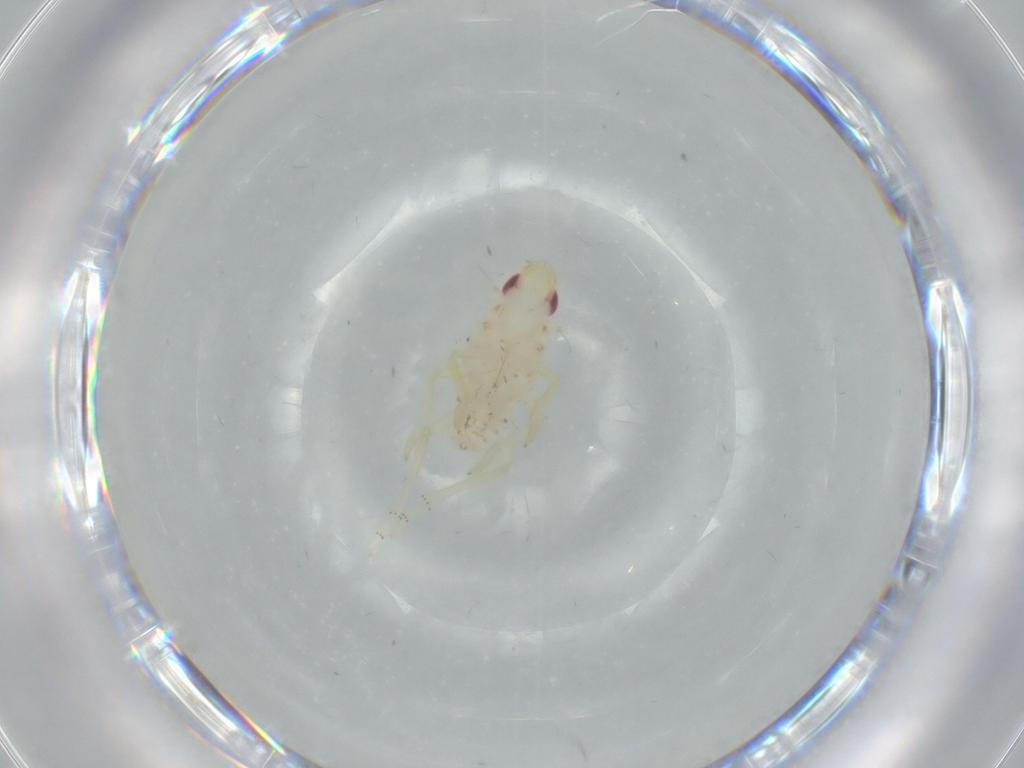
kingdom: Animalia
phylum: Arthropoda
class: Insecta
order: Hemiptera
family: Tropiduchidae
